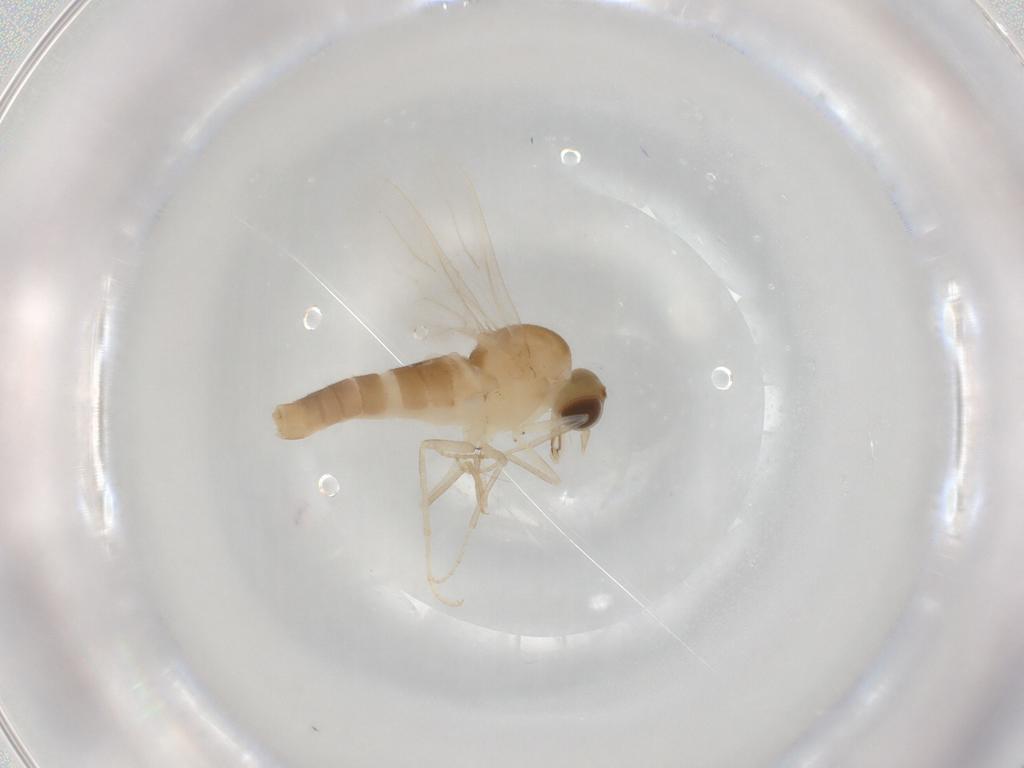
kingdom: Animalia
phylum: Arthropoda
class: Insecta
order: Diptera
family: Scenopinidae
